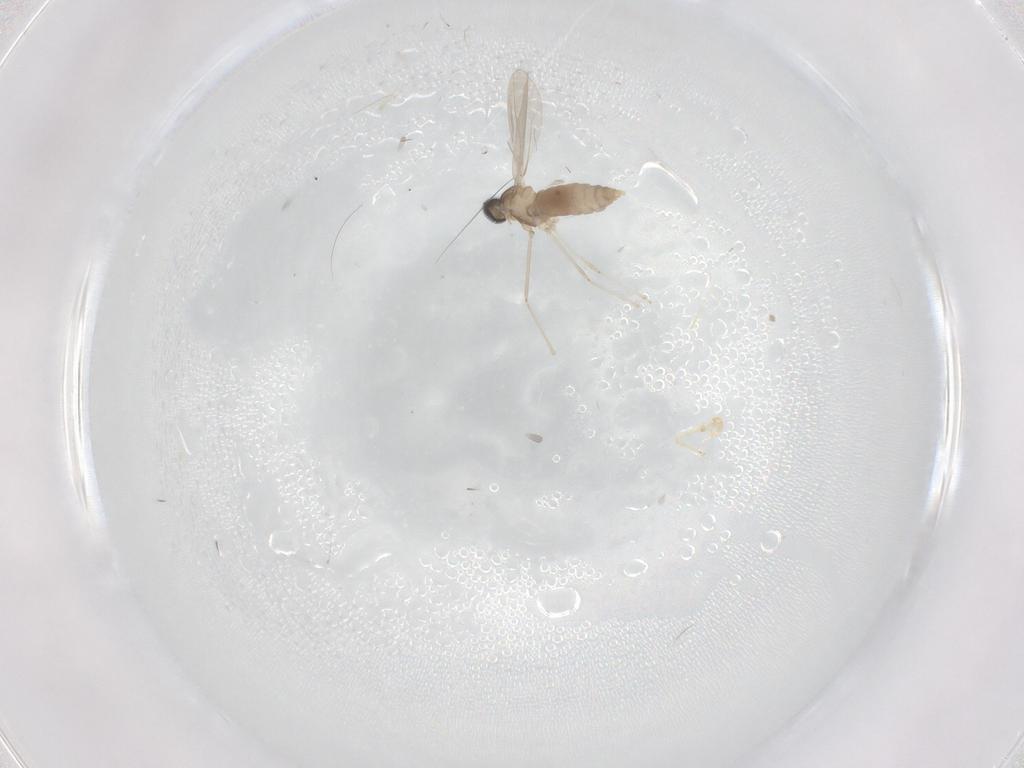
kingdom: Animalia
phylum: Arthropoda
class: Insecta
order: Diptera
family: Cecidomyiidae
